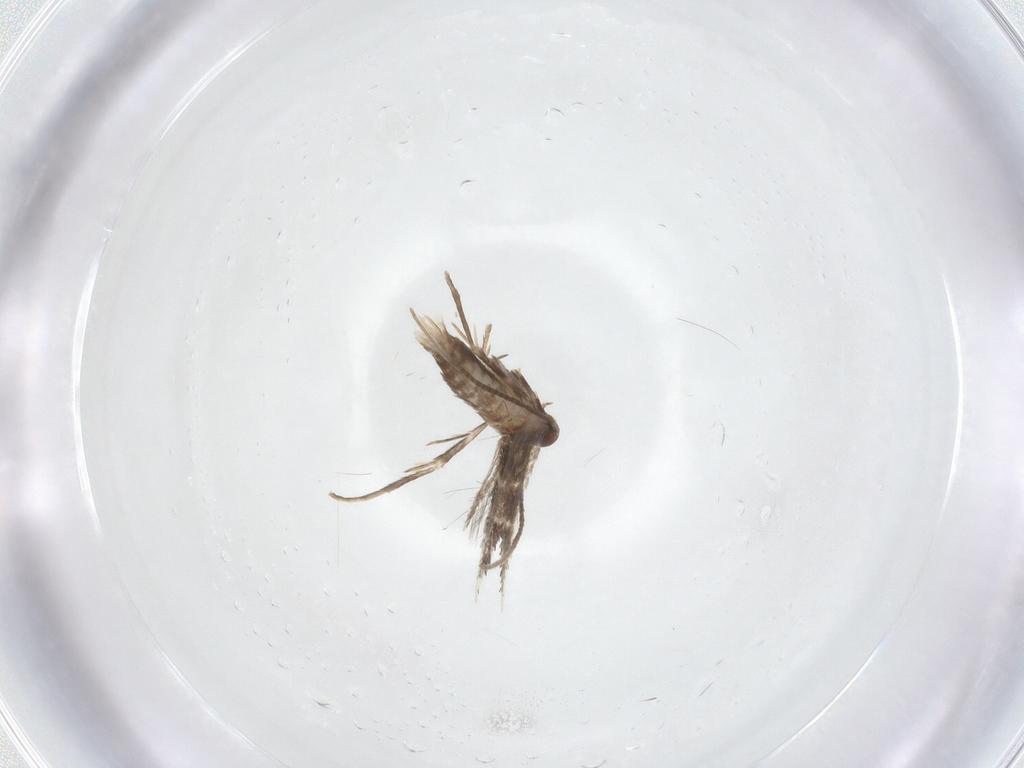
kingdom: Animalia
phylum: Arthropoda
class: Insecta
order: Lepidoptera
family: Gracillariidae
